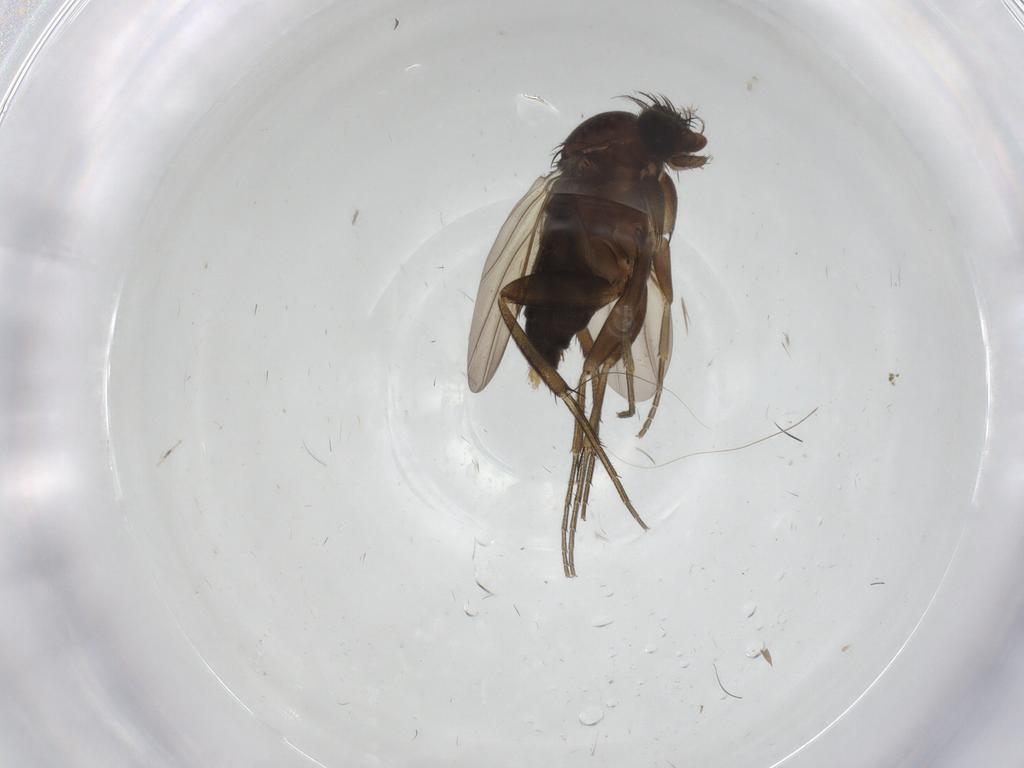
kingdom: Animalia
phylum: Arthropoda
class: Insecta
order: Diptera
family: Phoridae
